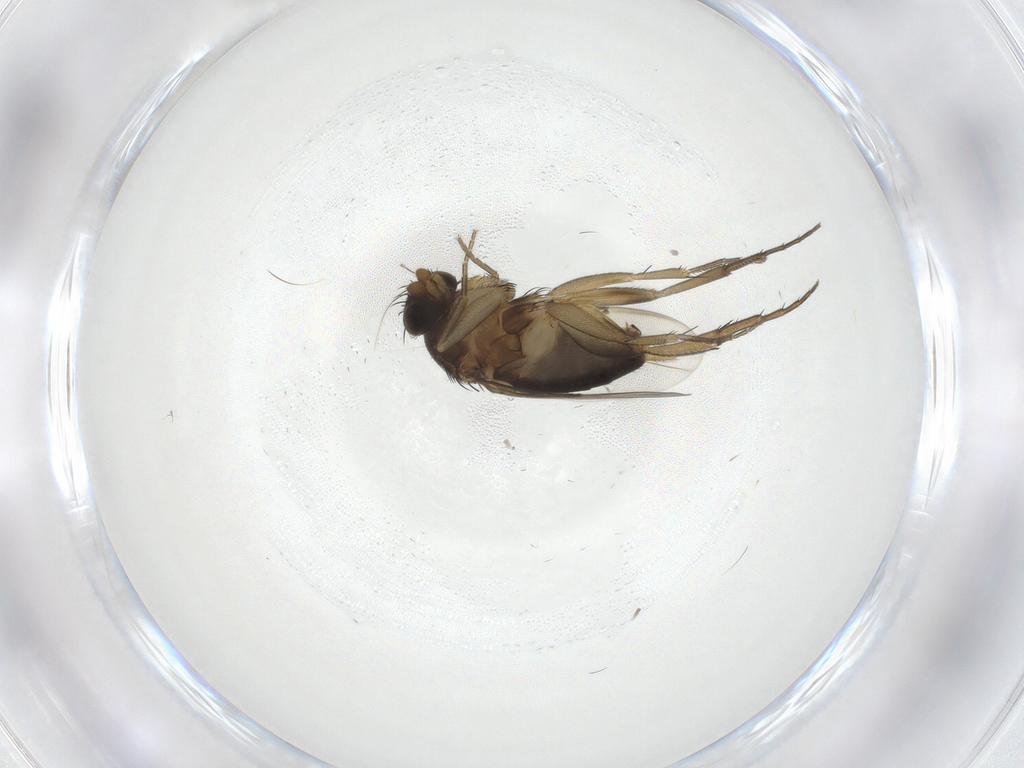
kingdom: Animalia
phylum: Arthropoda
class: Insecta
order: Diptera
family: Phoridae
